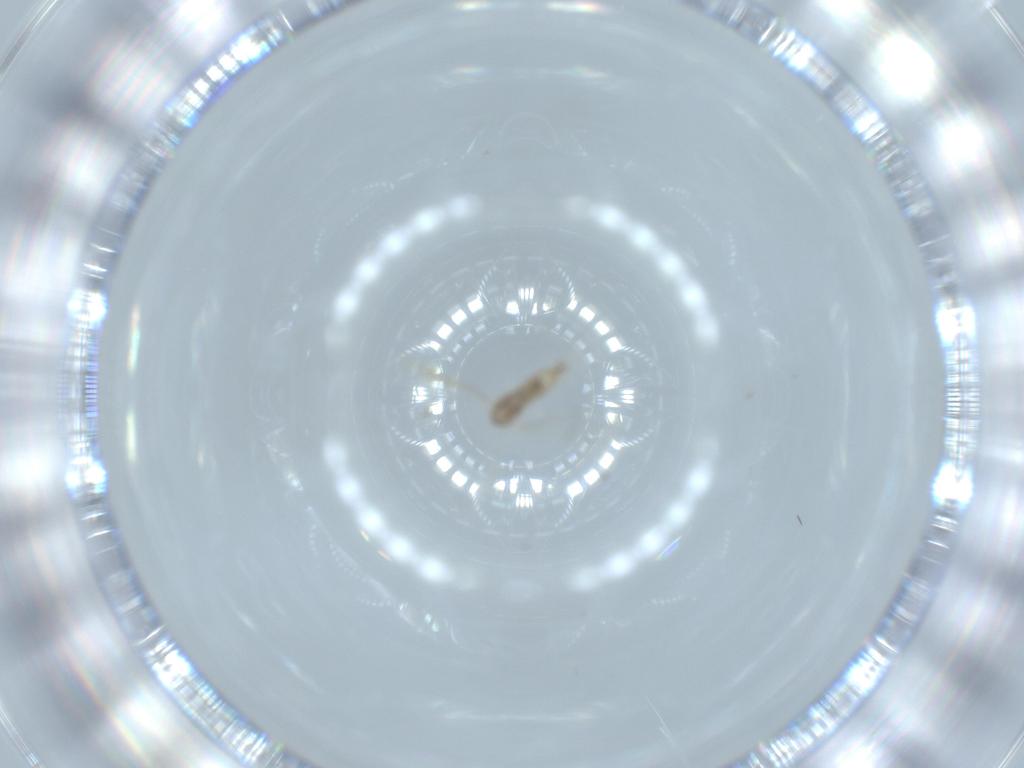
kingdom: Animalia
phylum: Arthropoda
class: Insecta
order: Diptera
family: Cecidomyiidae
